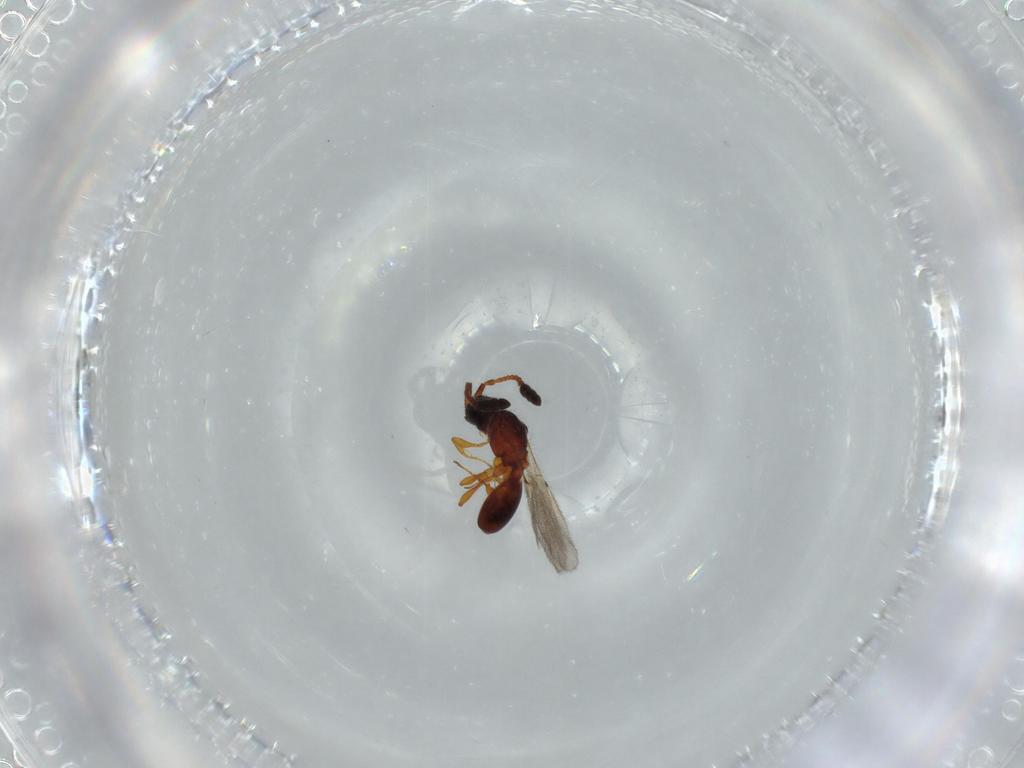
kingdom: Animalia
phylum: Arthropoda
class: Insecta
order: Hymenoptera
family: Diapriidae
